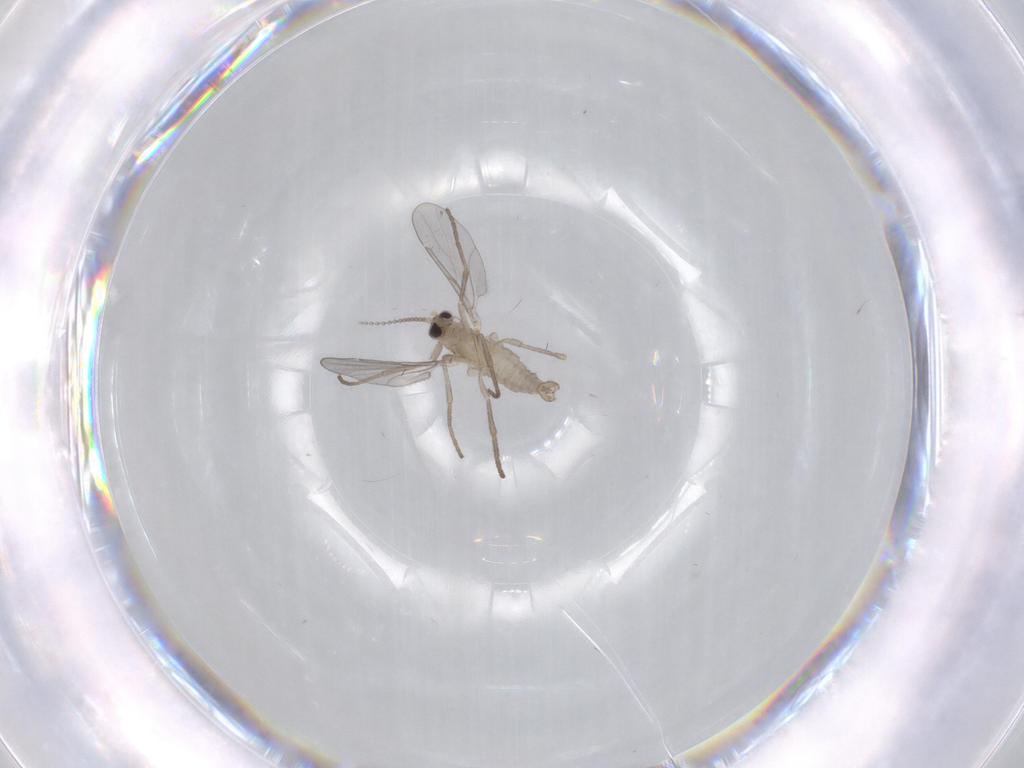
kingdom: Animalia
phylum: Arthropoda
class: Insecta
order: Diptera
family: Cecidomyiidae
